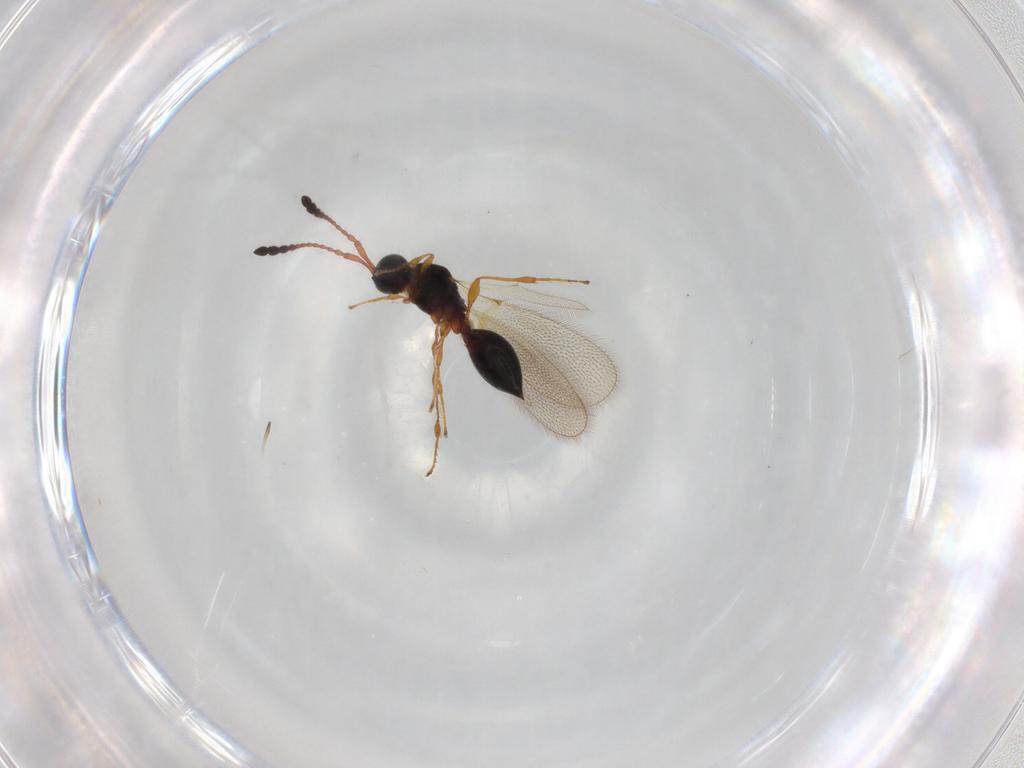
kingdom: Animalia
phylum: Arthropoda
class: Insecta
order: Hymenoptera
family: Diapriidae
